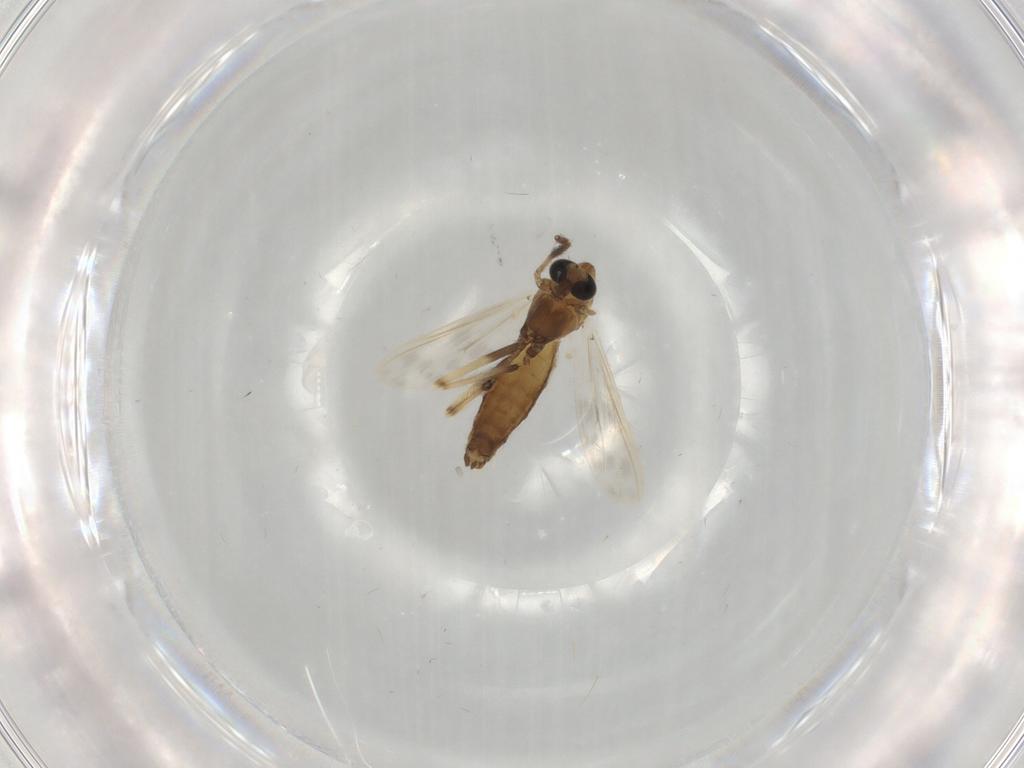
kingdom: Animalia
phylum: Arthropoda
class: Insecta
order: Diptera
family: Chironomidae
